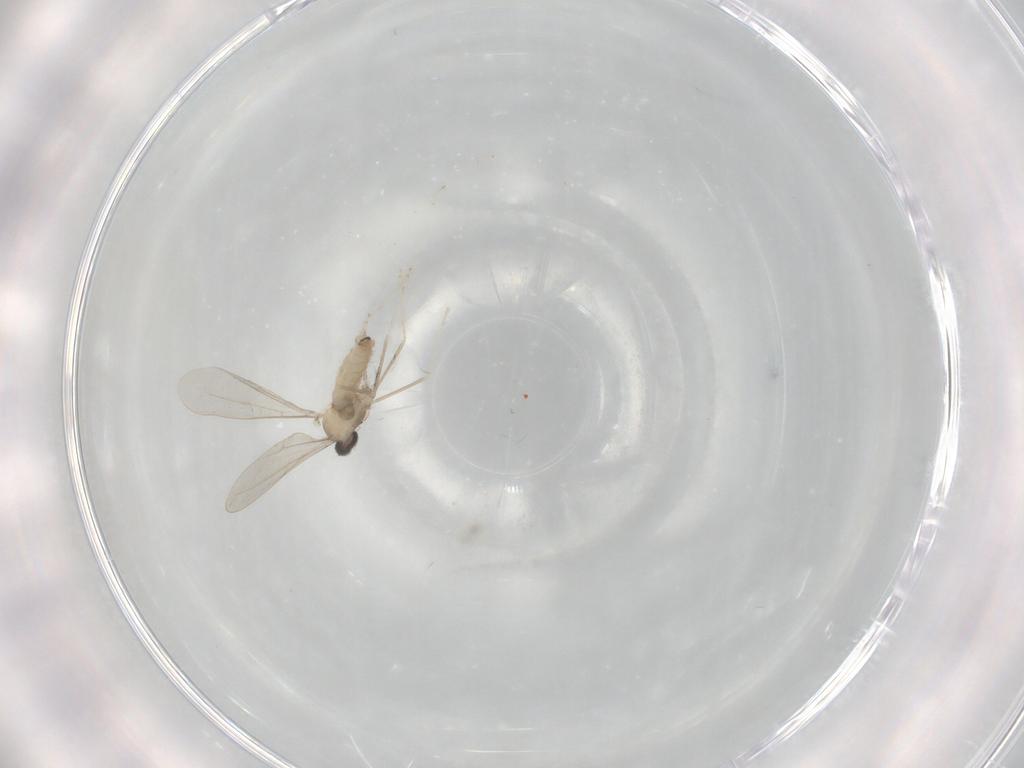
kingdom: Animalia
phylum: Arthropoda
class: Insecta
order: Diptera
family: Cecidomyiidae
